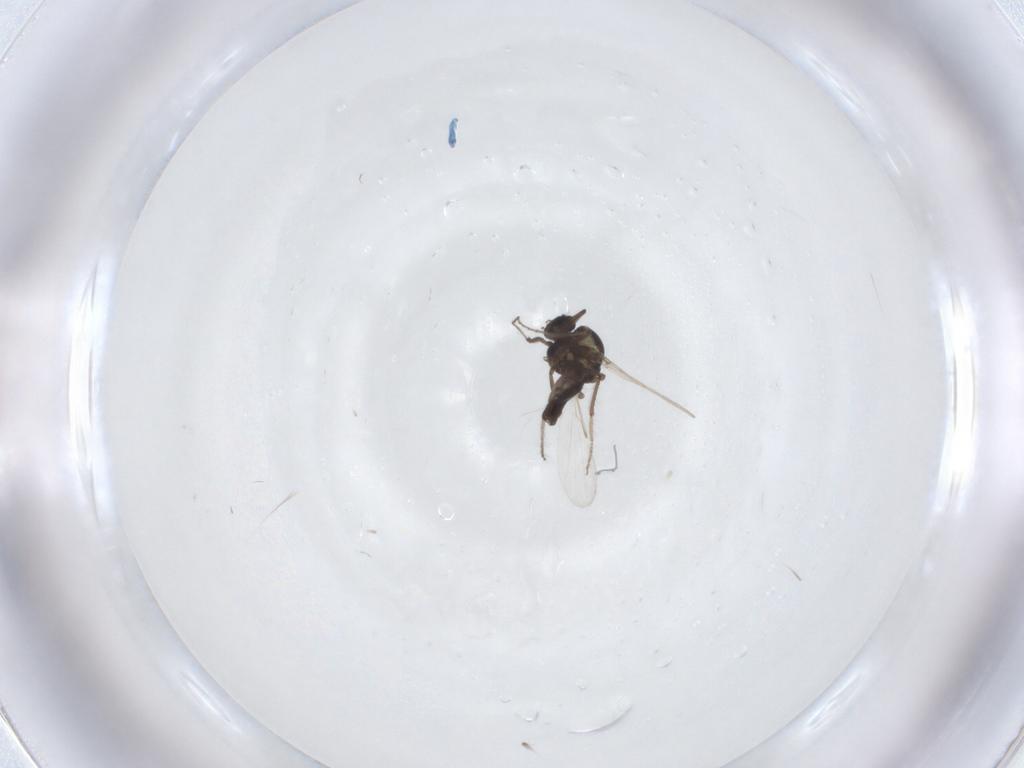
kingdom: Animalia
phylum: Arthropoda
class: Insecta
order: Diptera
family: Ceratopogonidae
